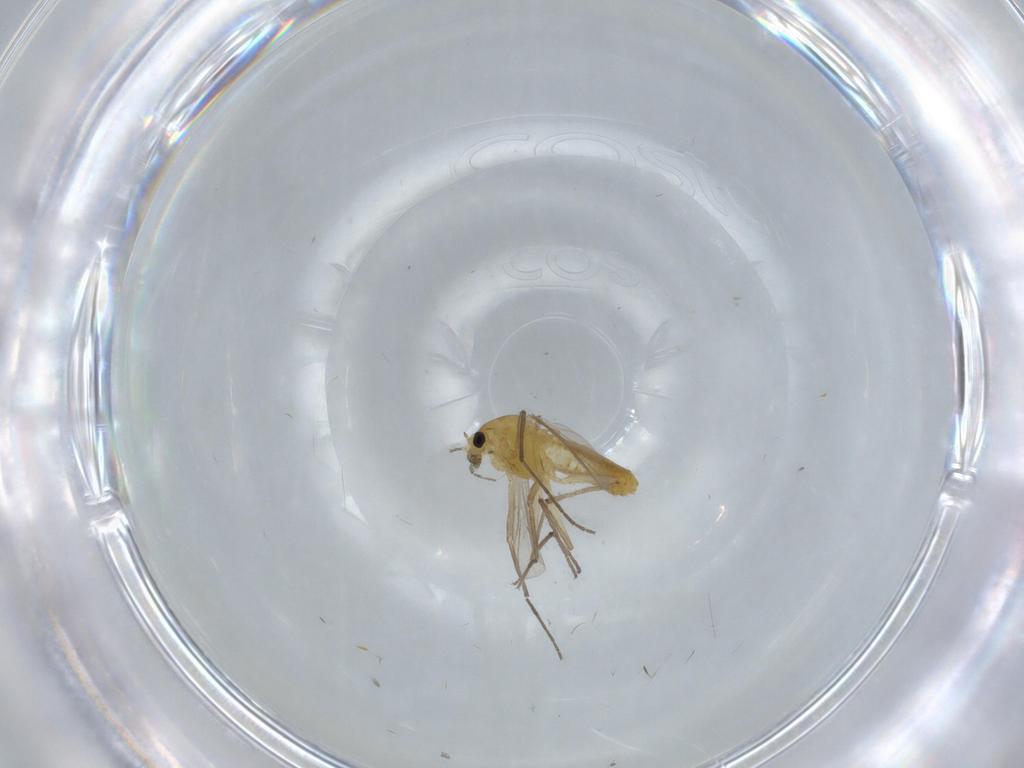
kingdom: Animalia
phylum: Arthropoda
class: Insecta
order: Diptera
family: Chironomidae
